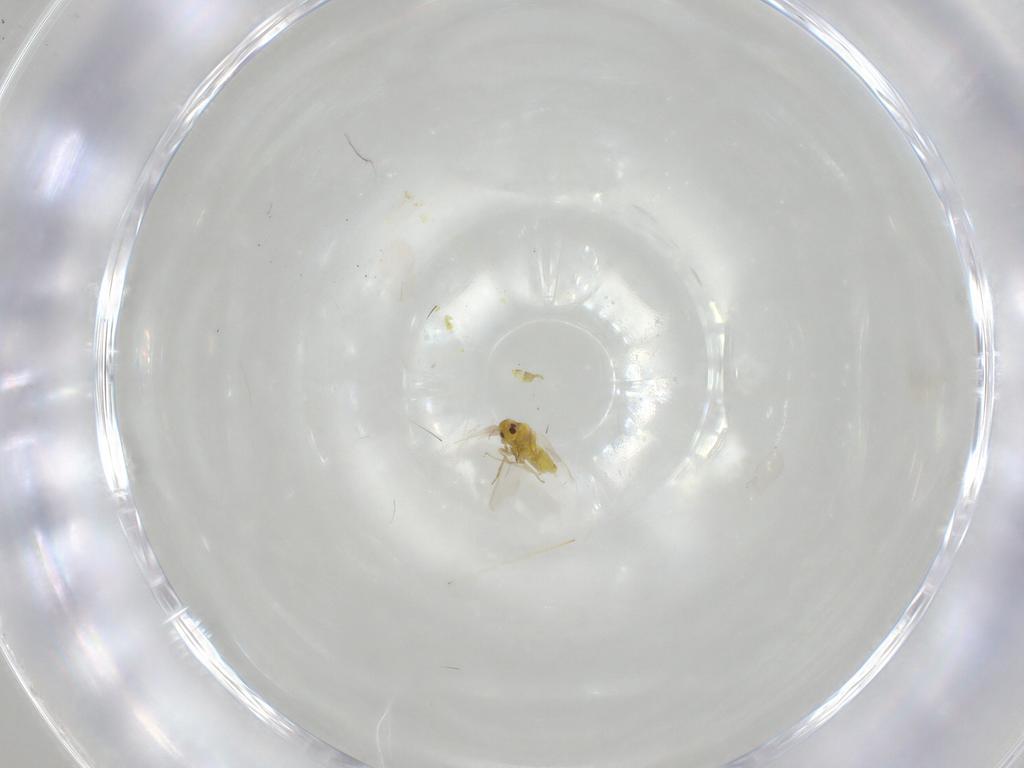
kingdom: Animalia
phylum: Arthropoda
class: Insecta
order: Hemiptera
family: Aleyrodidae
